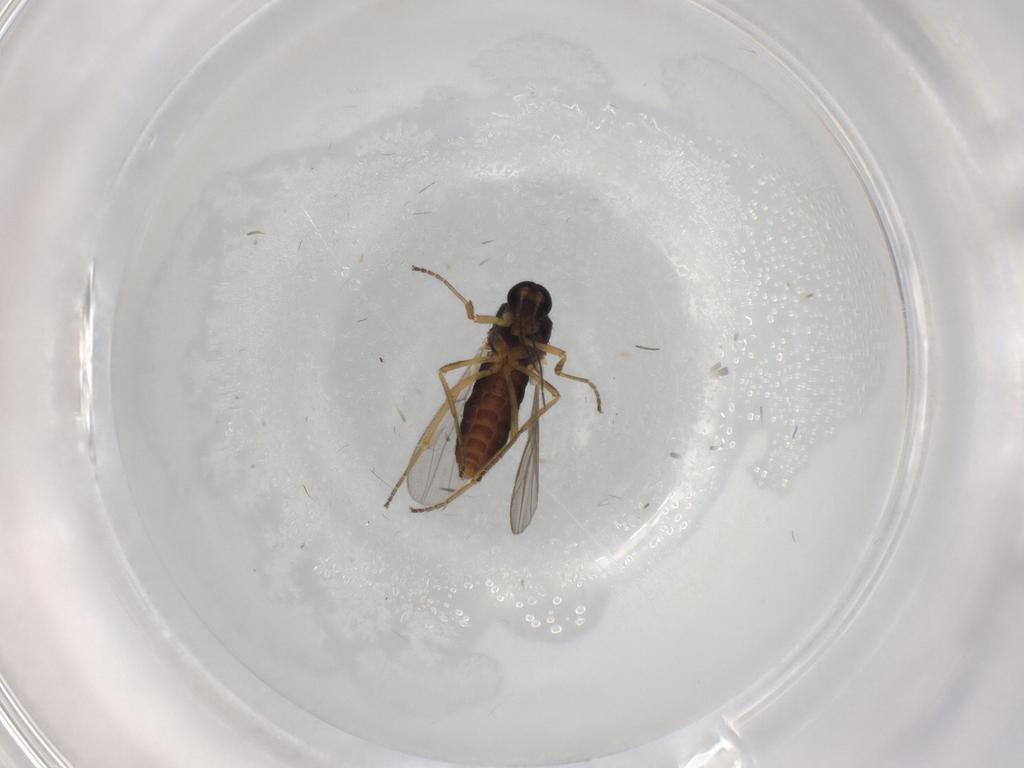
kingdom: Animalia
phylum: Arthropoda
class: Insecta
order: Diptera
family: Ceratopogonidae
